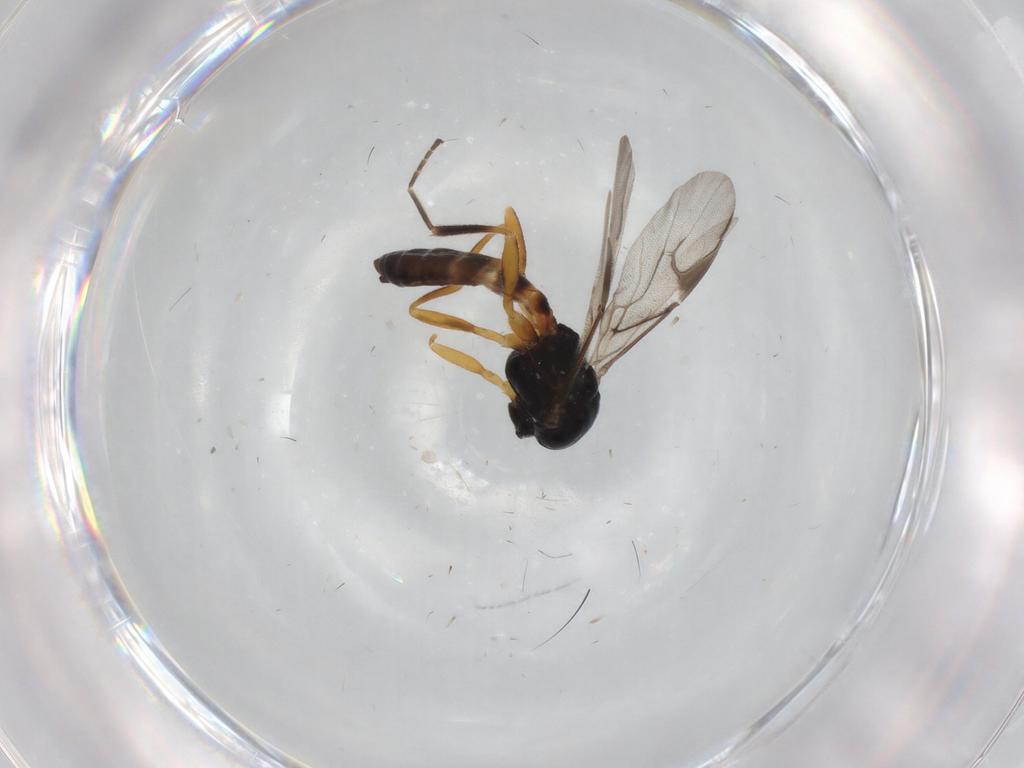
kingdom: Animalia
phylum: Arthropoda
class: Insecta
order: Hymenoptera
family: Braconidae
